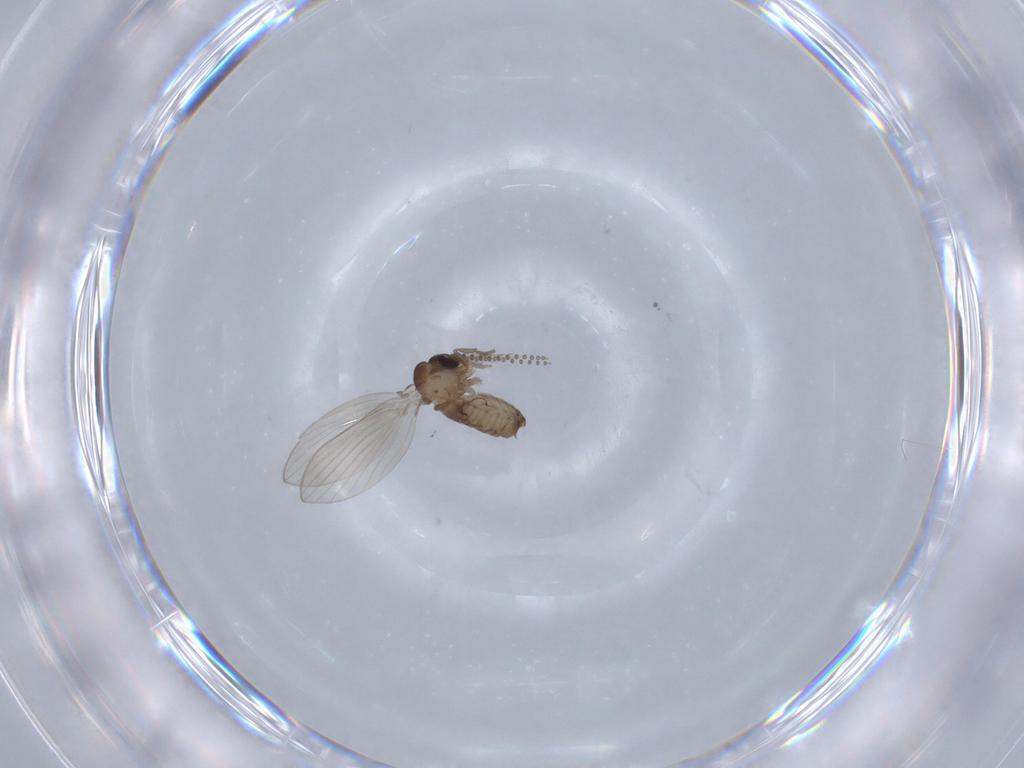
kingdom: Animalia
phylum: Arthropoda
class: Insecta
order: Diptera
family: Psychodidae
